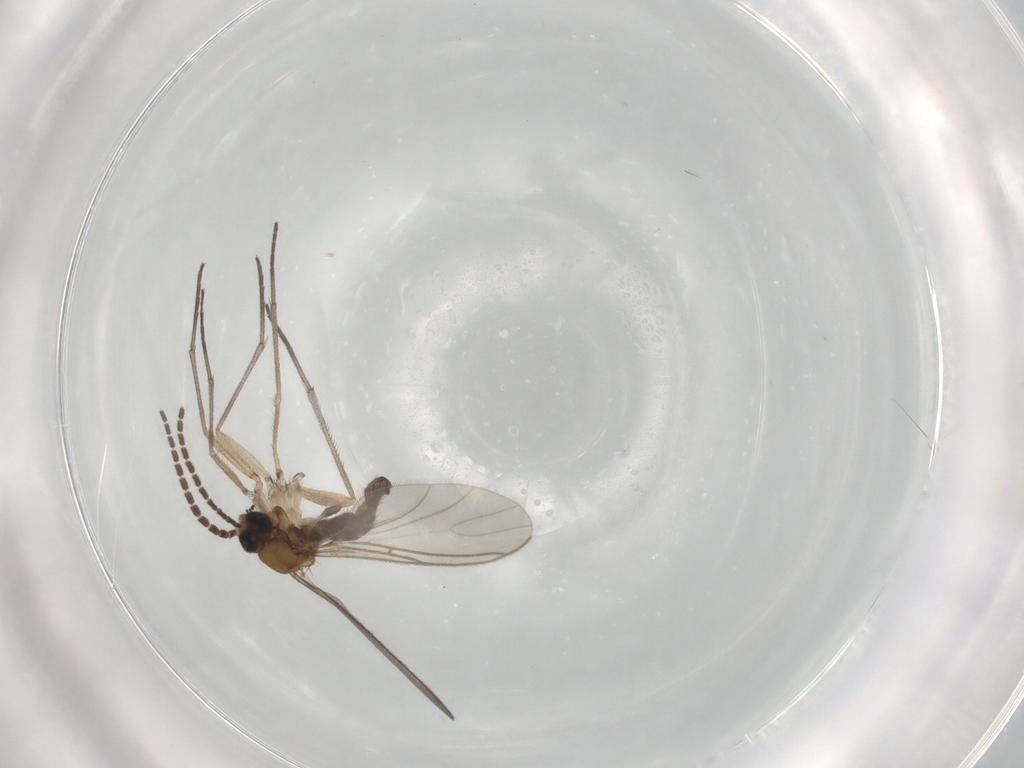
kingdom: Animalia
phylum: Arthropoda
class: Insecta
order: Diptera
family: Sciaridae
